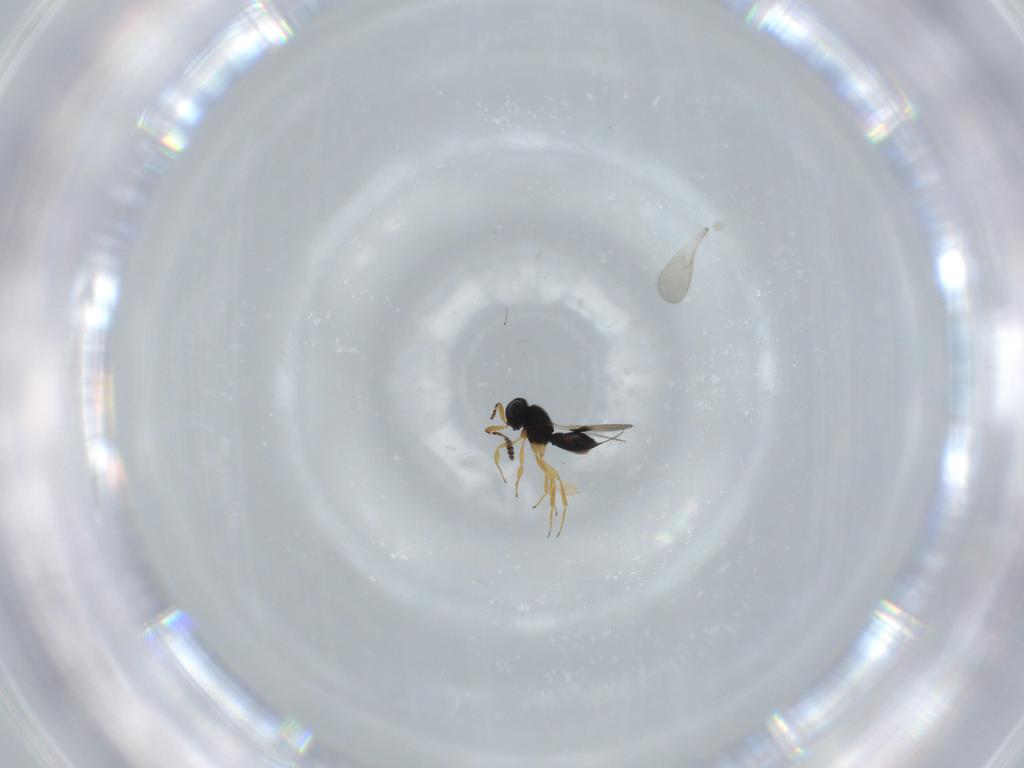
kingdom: Animalia
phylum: Arthropoda
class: Insecta
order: Hymenoptera
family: Scelionidae
